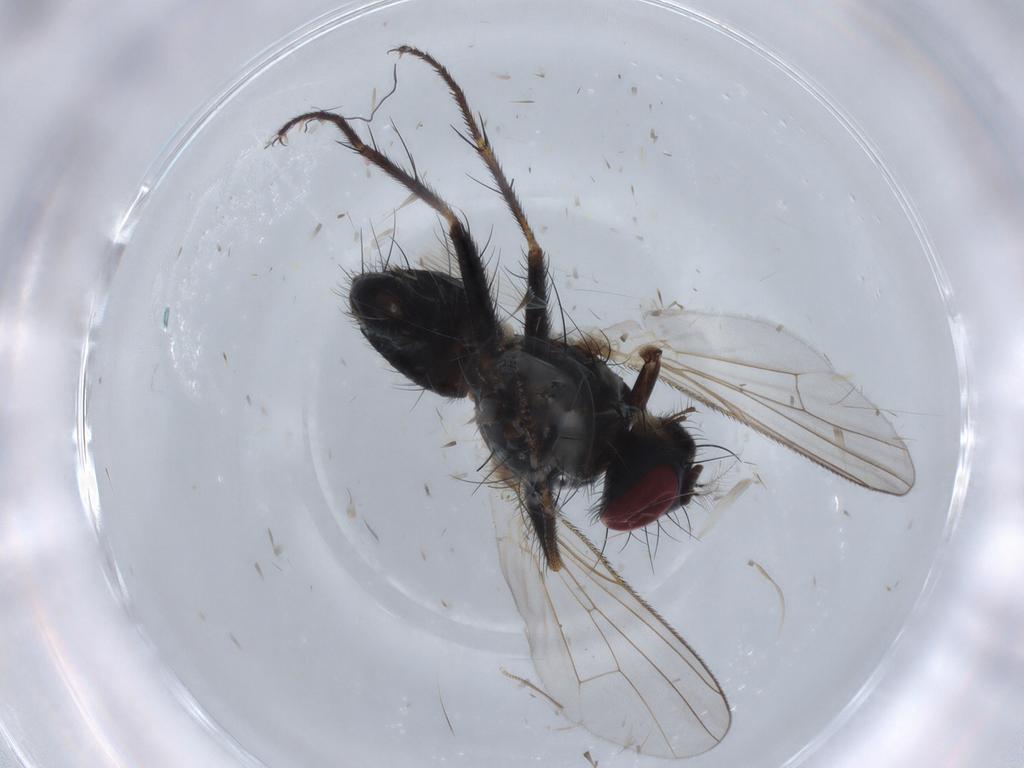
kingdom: Animalia
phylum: Arthropoda
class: Insecta
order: Diptera
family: Muscidae
